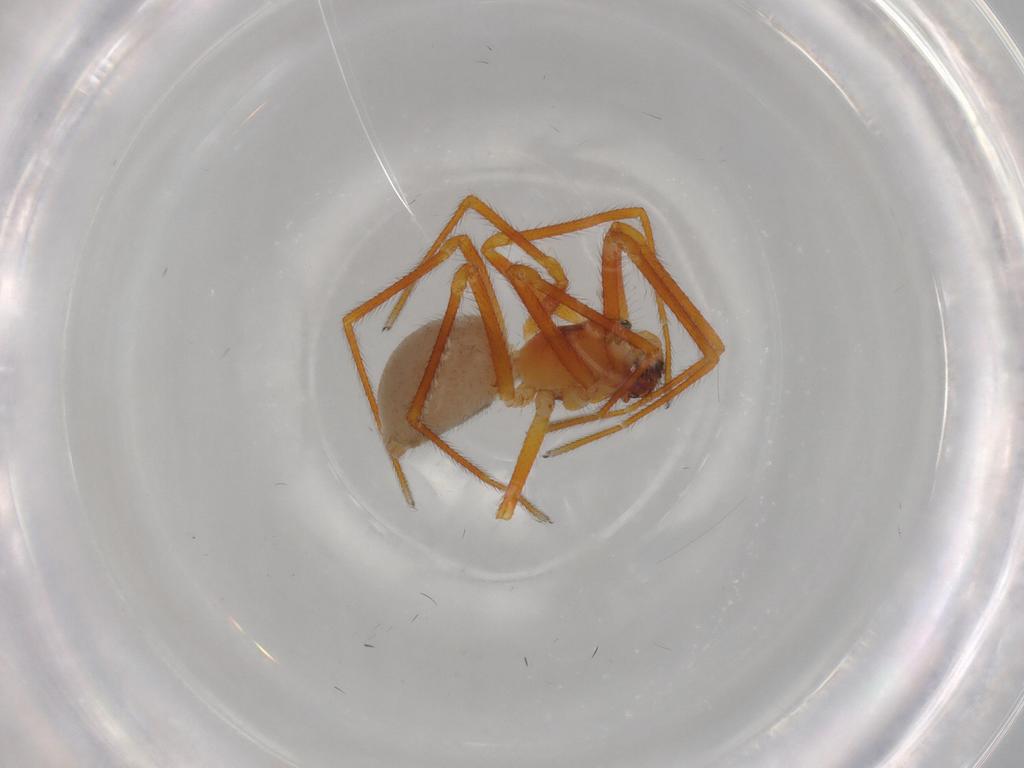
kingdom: Animalia
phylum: Arthropoda
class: Arachnida
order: Araneae
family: Linyphiidae
